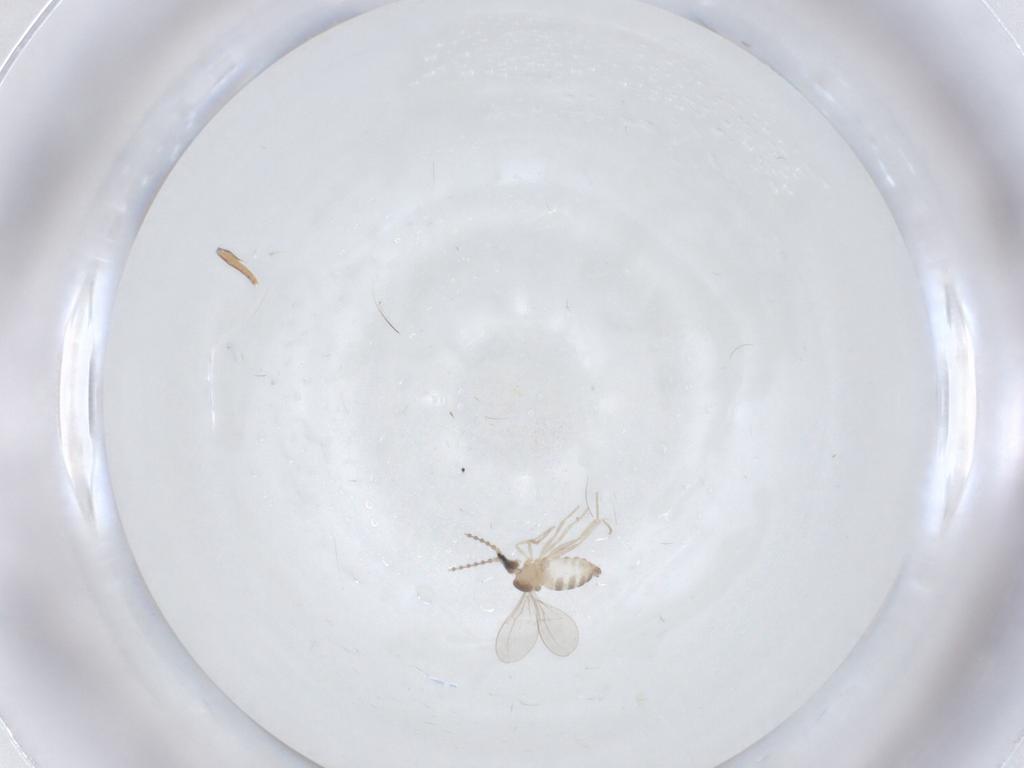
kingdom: Animalia
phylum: Arthropoda
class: Insecta
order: Diptera
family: Cecidomyiidae
